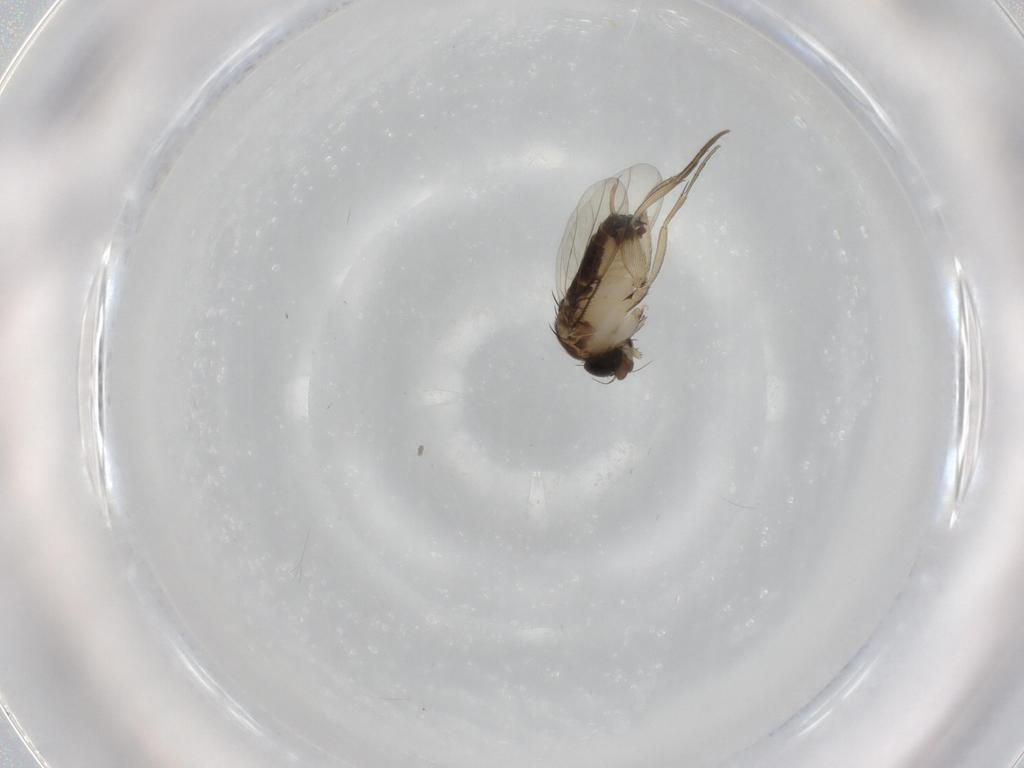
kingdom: Animalia
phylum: Arthropoda
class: Insecta
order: Diptera
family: Phoridae
